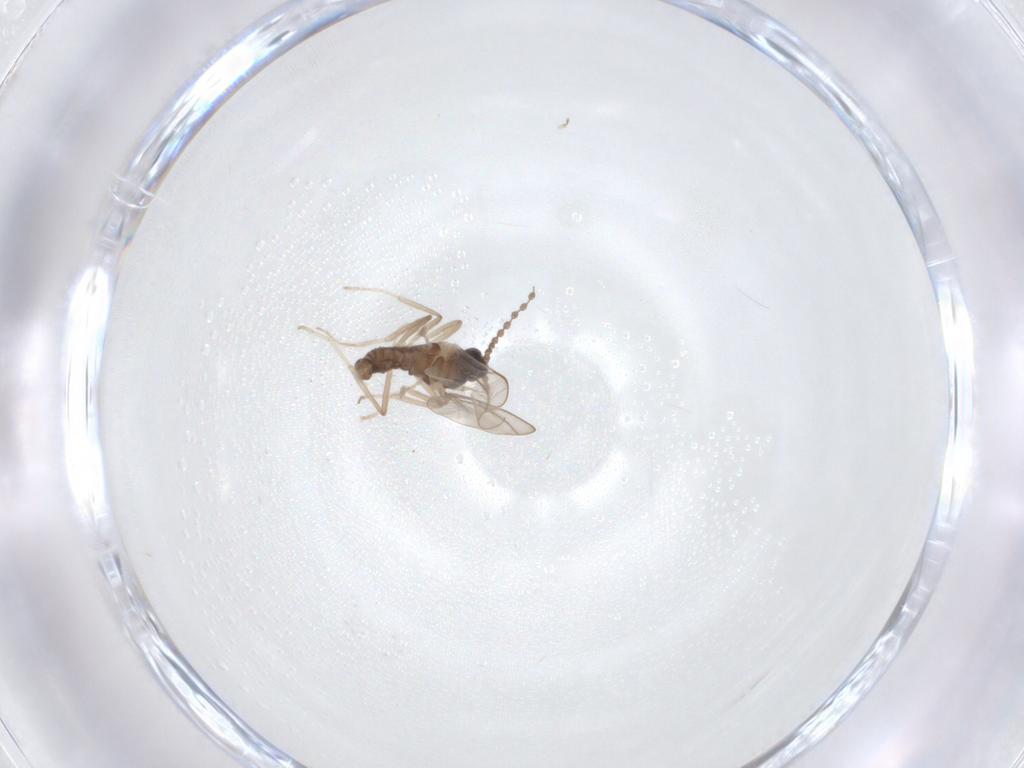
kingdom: Animalia
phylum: Arthropoda
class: Insecta
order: Diptera
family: Cecidomyiidae
